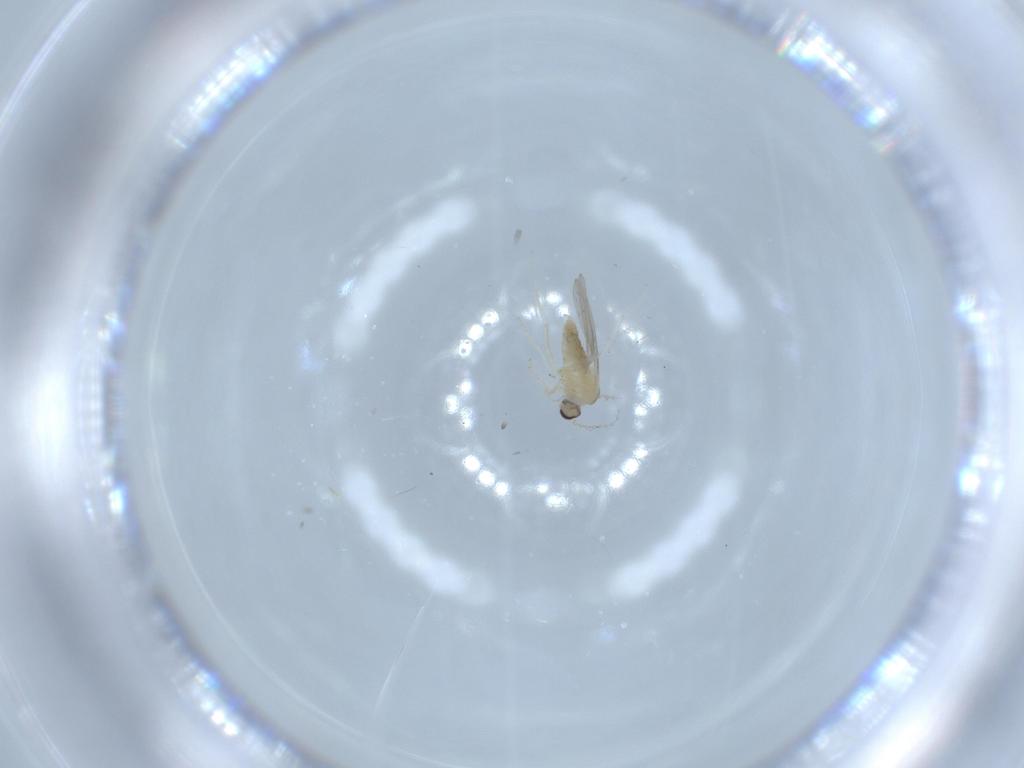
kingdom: Animalia
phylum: Arthropoda
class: Insecta
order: Diptera
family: Cecidomyiidae
